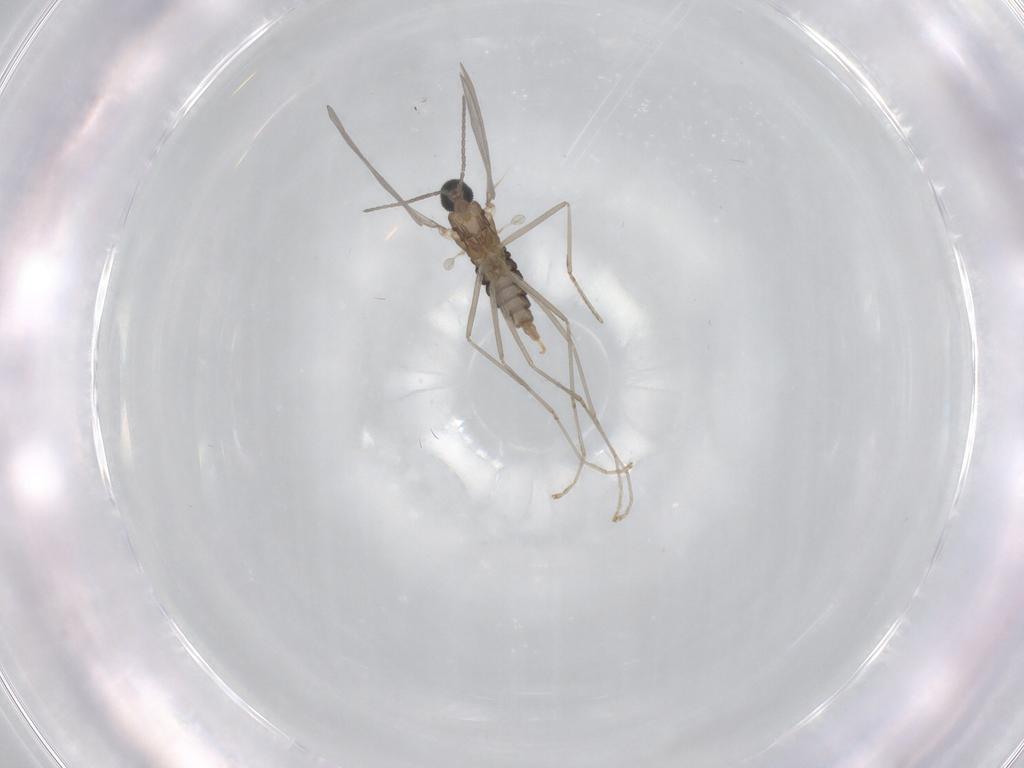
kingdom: Animalia
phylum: Arthropoda
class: Insecta
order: Diptera
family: Cecidomyiidae
